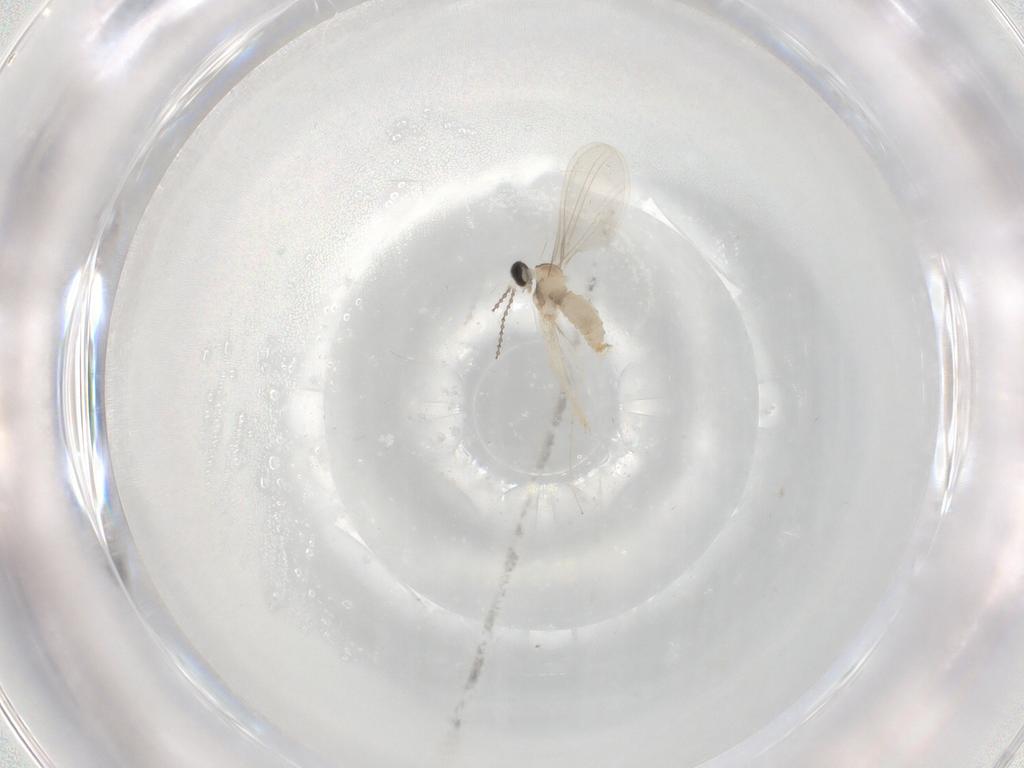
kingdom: Animalia
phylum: Arthropoda
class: Insecta
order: Diptera
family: Cecidomyiidae
